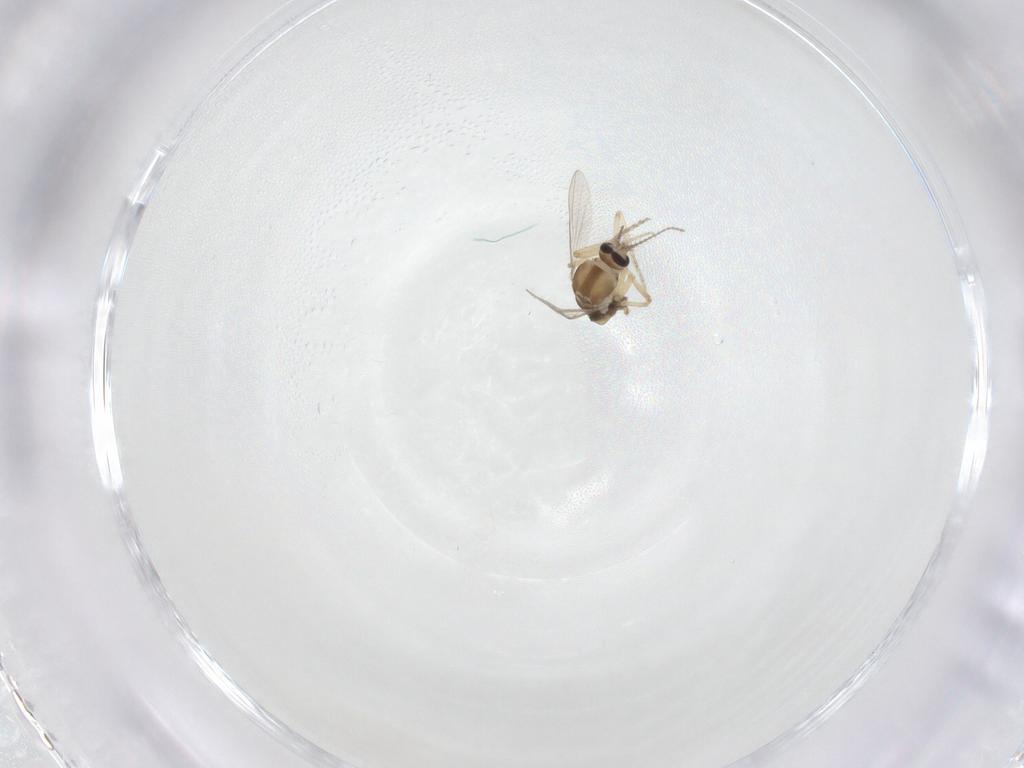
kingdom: Animalia
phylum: Arthropoda
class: Insecta
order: Diptera
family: Ceratopogonidae
